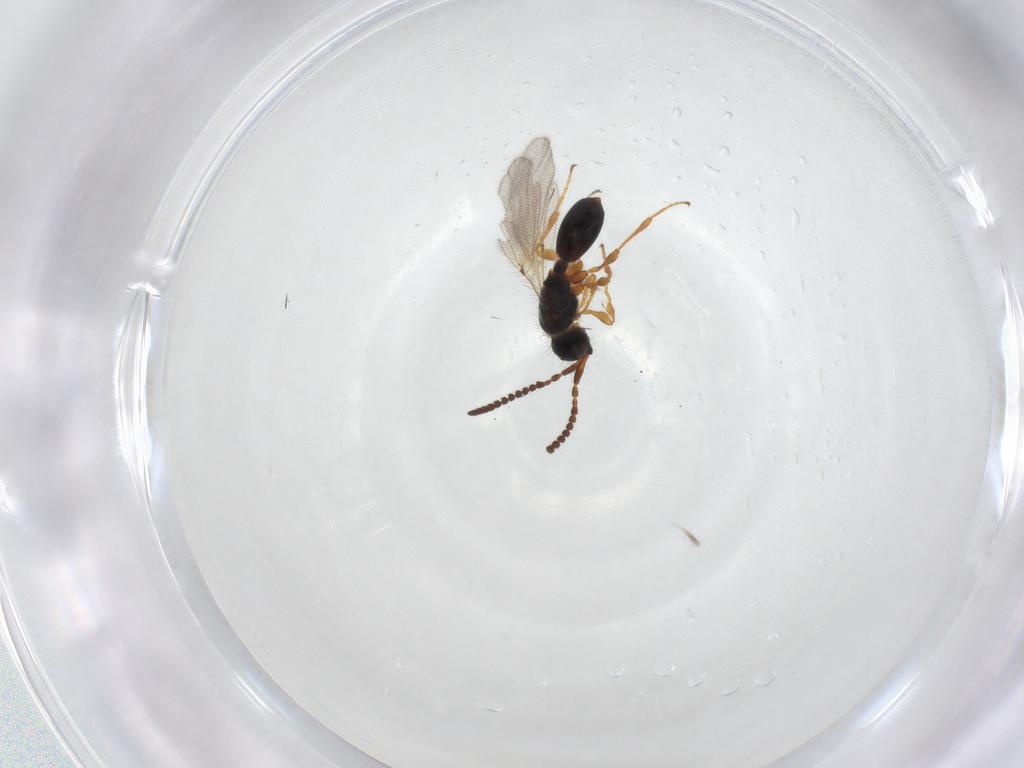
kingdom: Animalia
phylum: Arthropoda
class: Insecta
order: Hymenoptera
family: Diapriidae
